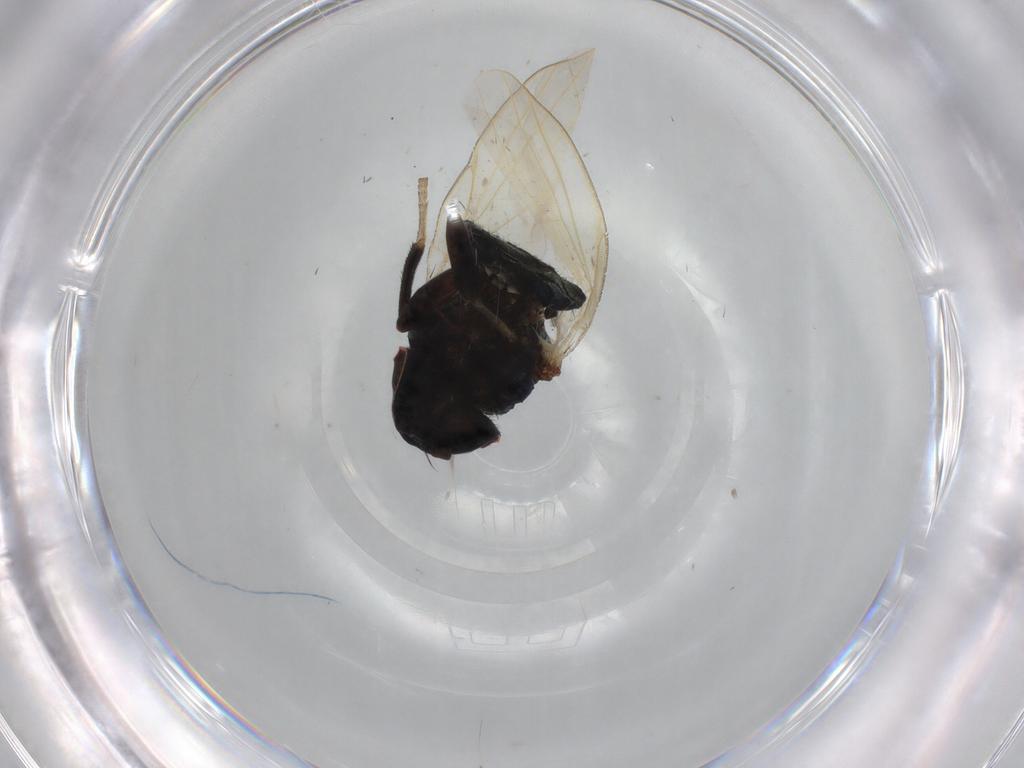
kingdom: Animalia
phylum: Arthropoda
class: Insecta
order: Diptera
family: Lonchaeidae
